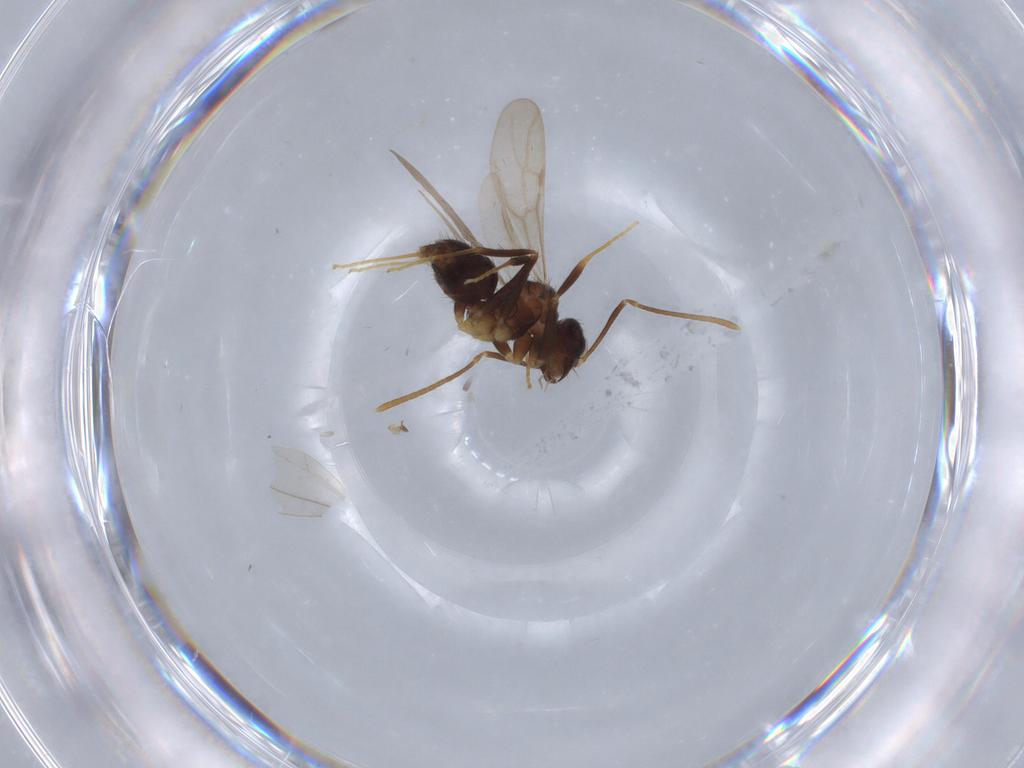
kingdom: Animalia
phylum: Arthropoda
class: Insecta
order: Hymenoptera
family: Formicidae
